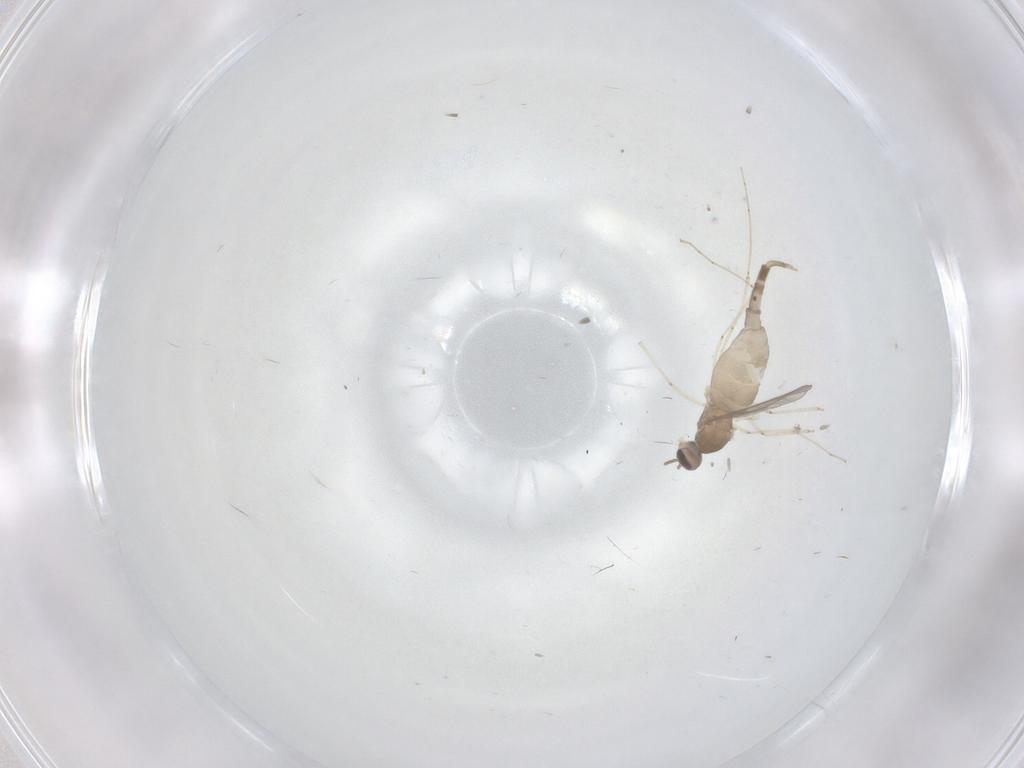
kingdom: Animalia
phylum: Arthropoda
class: Insecta
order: Diptera
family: Cecidomyiidae
